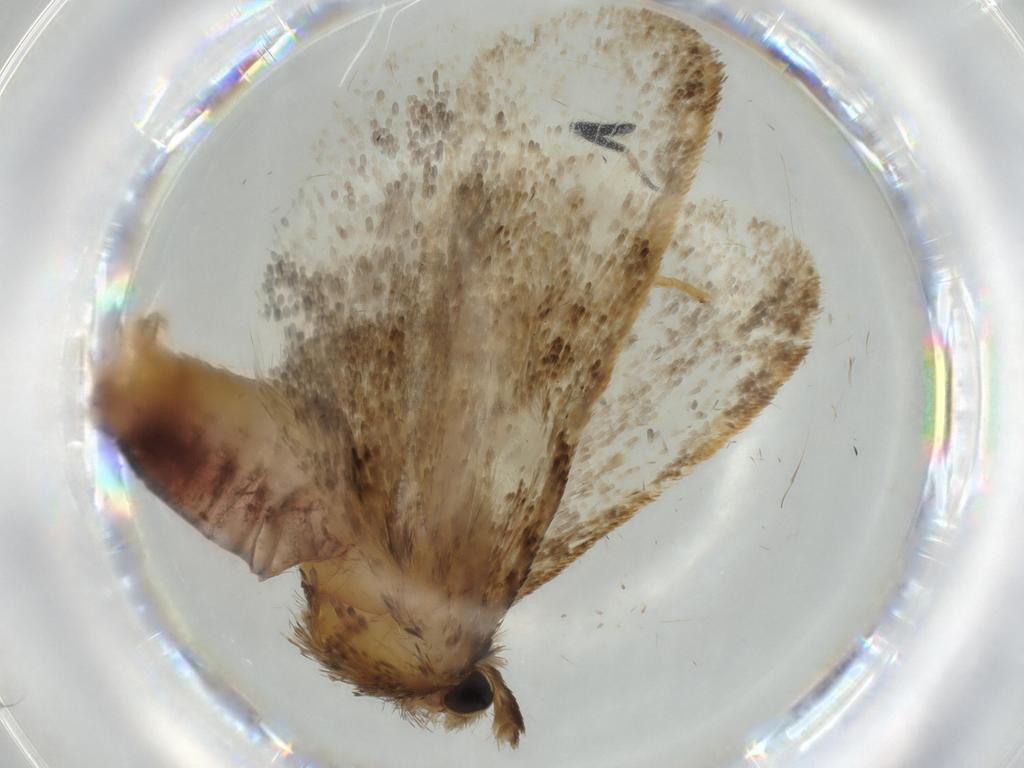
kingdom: Animalia
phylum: Arthropoda
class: Insecta
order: Lepidoptera
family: Tineidae
